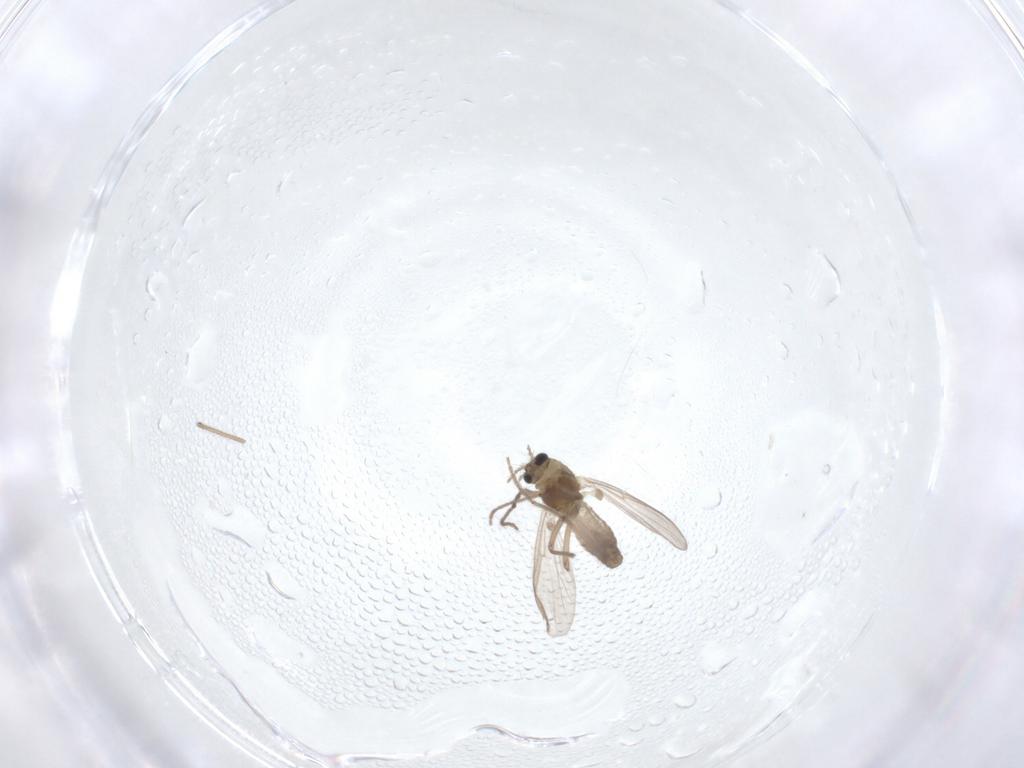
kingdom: Animalia
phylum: Arthropoda
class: Insecta
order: Diptera
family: Chironomidae
